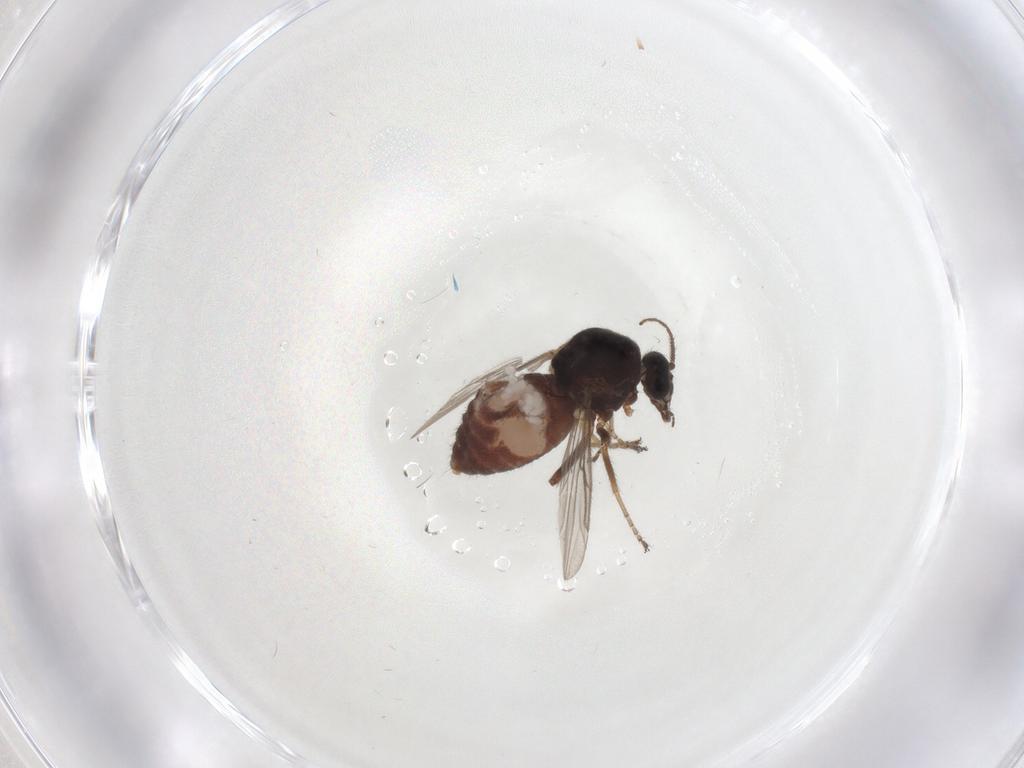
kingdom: Animalia
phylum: Arthropoda
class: Insecta
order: Diptera
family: Ceratopogonidae
